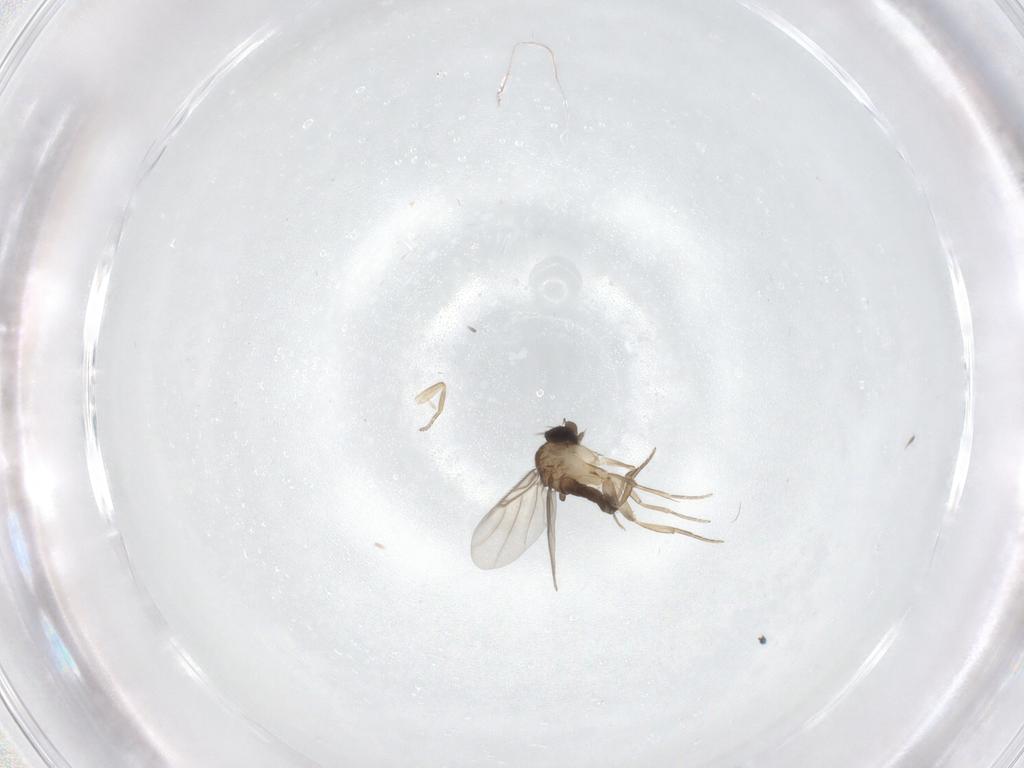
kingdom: Animalia
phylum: Arthropoda
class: Insecta
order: Diptera
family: Phoridae
